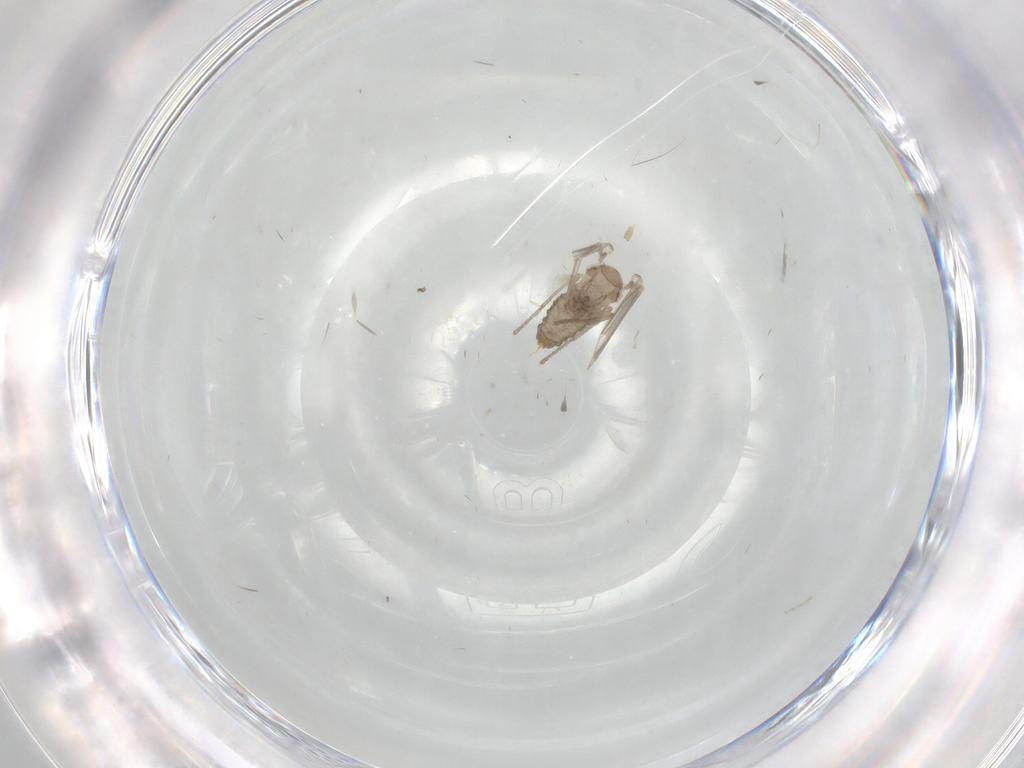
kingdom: Animalia
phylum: Arthropoda
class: Insecta
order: Diptera
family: Psychodidae
